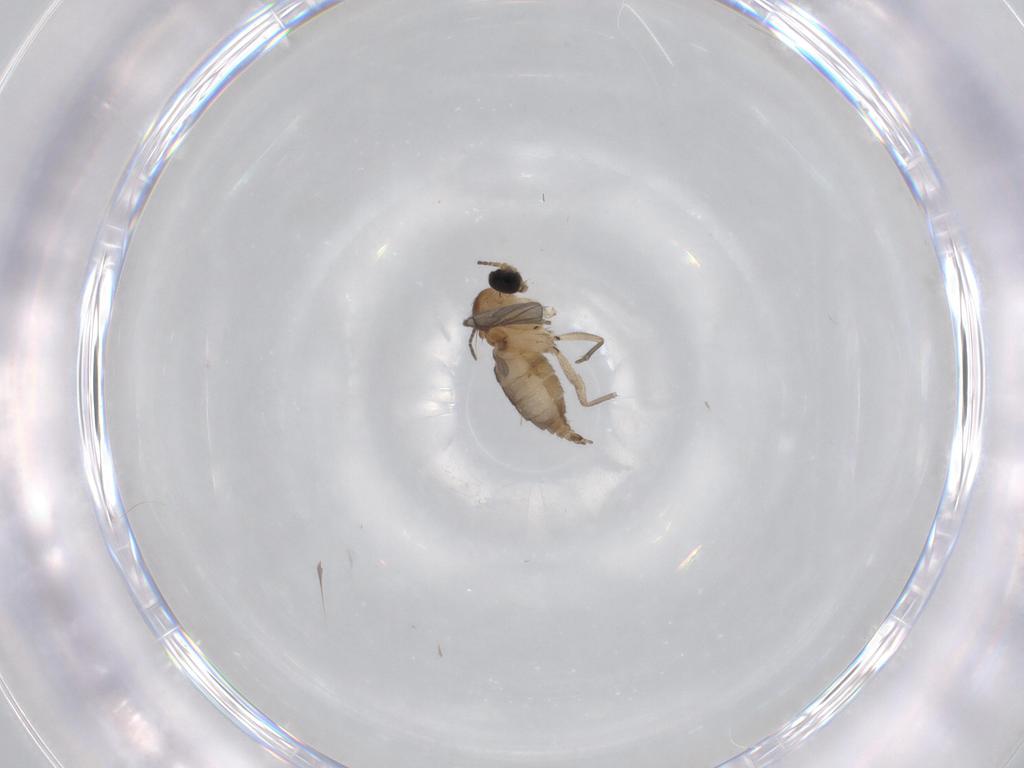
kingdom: Animalia
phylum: Arthropoda
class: Insecta
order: Diptera
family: Sciaridae
